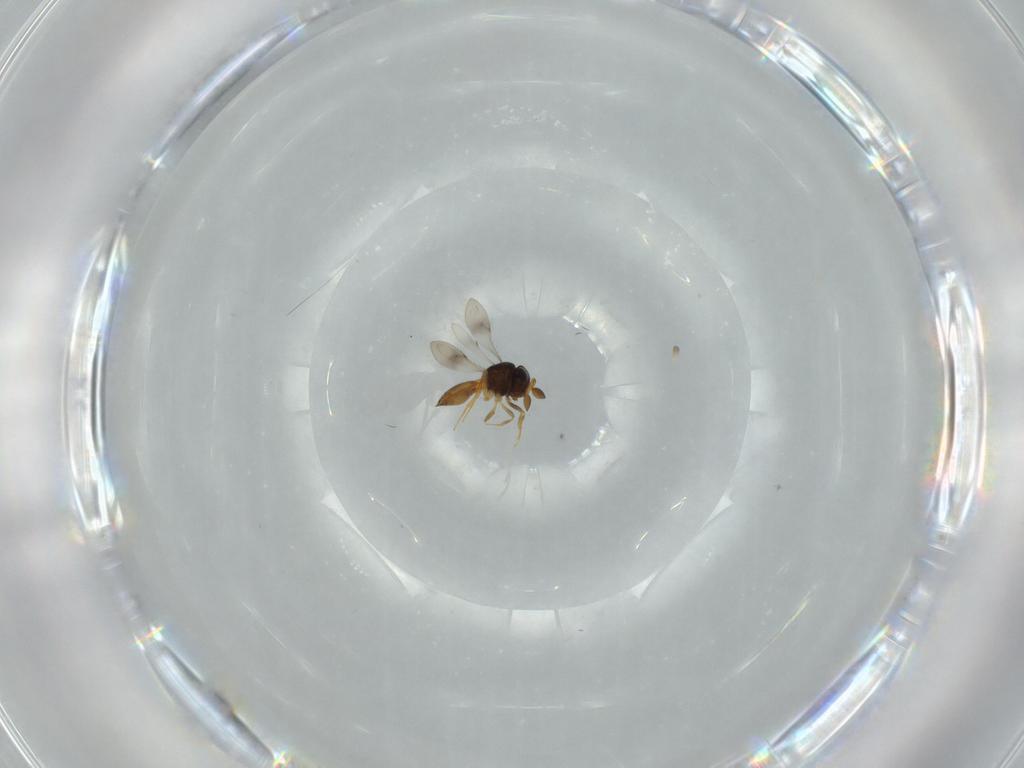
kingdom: Animalia
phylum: Arthropoda
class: Insecta
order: Hymenoptera
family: Scelionidae
